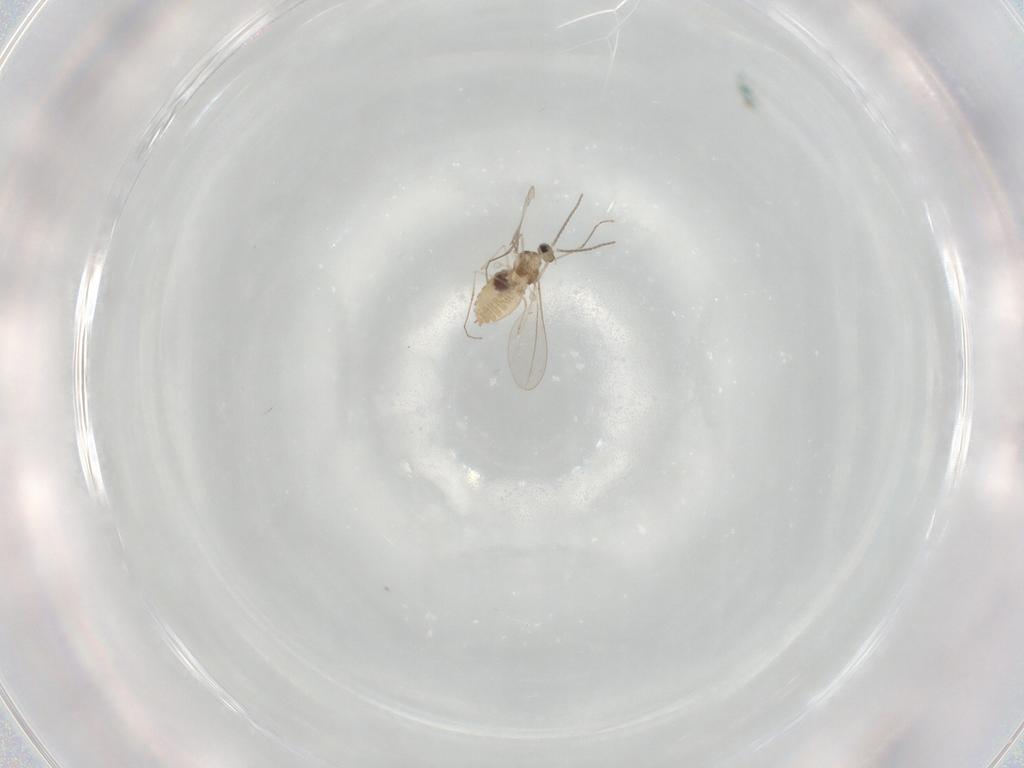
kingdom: Animalia
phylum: Arthropoda
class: Insecta
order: Diptera
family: Cecidomyiidae
